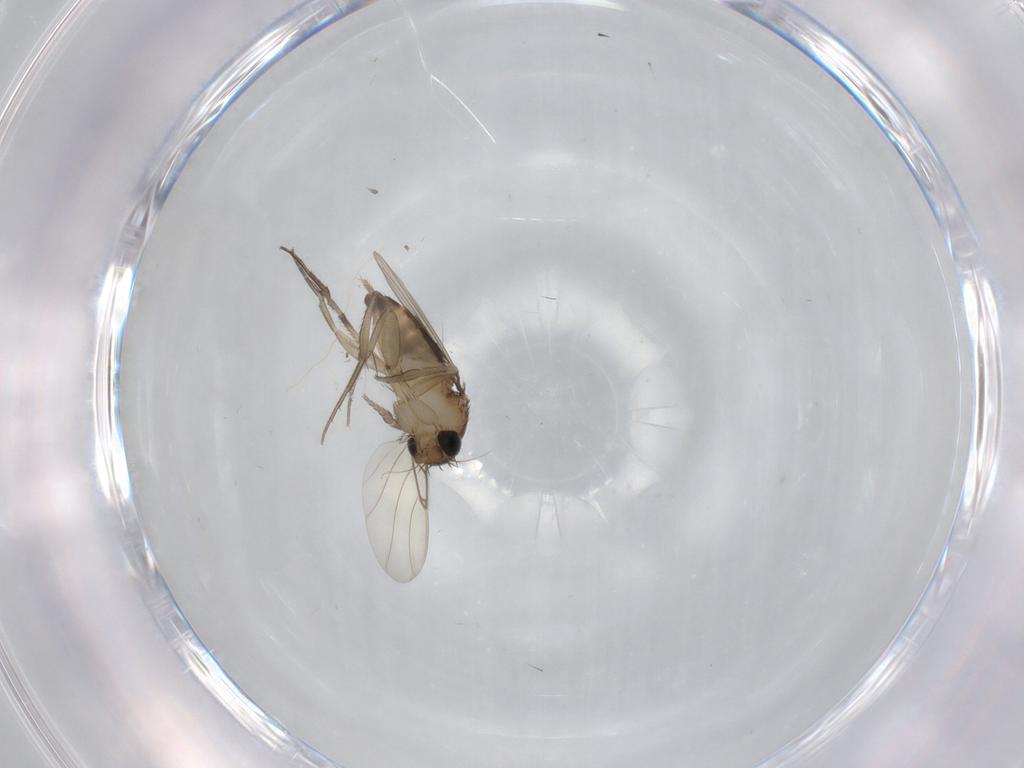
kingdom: Animalia
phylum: Arthropoda
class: Insecta
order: Diptera
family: Phoridae
